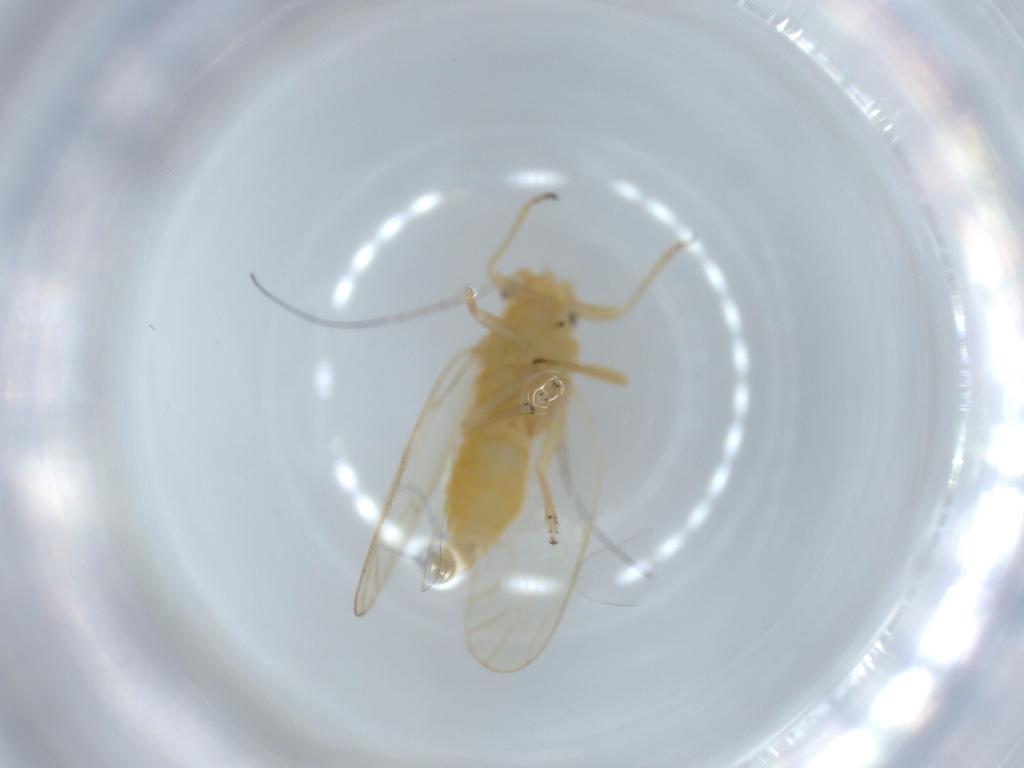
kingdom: Animalia
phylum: Arthropoda
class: Insecta
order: Hemiptera
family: Psyllidae
